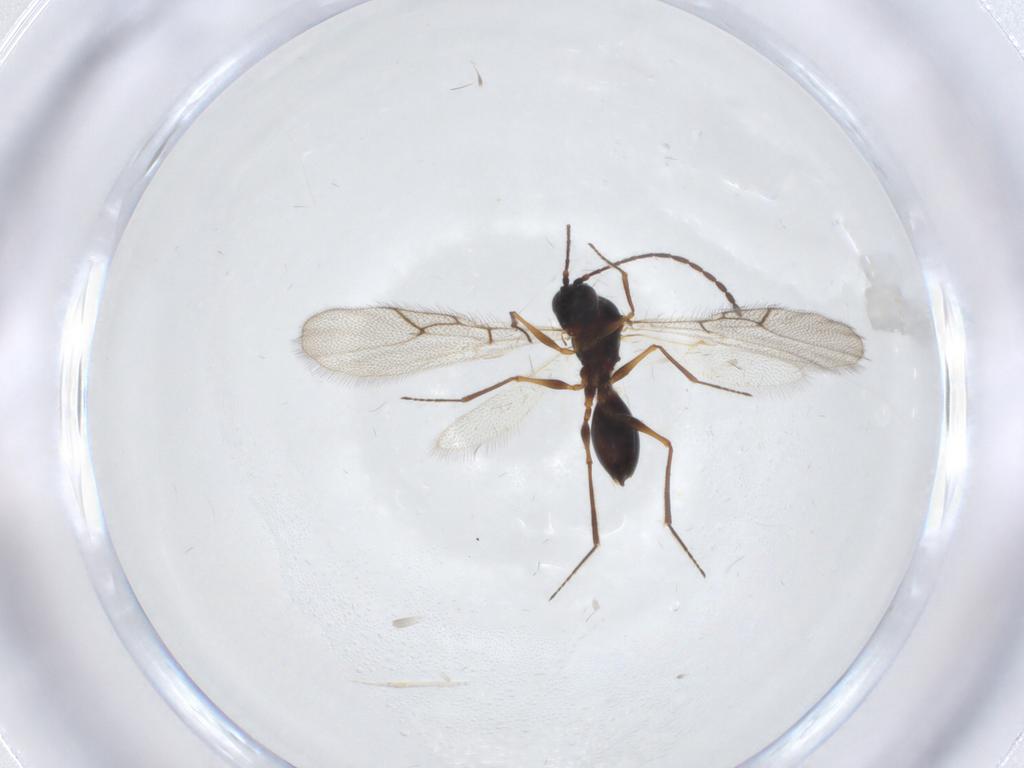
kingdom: Animalia
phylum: Arthropoda
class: Insecta
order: Hymenoptera
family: Figitidae
